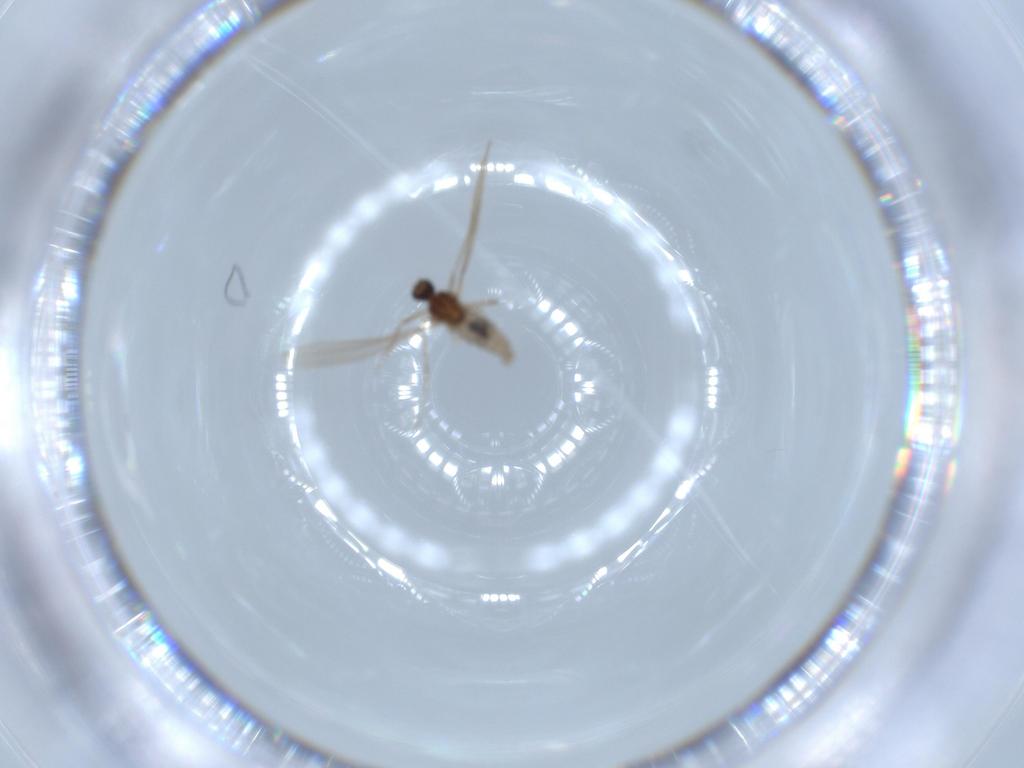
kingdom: Animalia
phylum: Arthropoda
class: Insecta
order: Diptera
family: Cecidomyiidae
